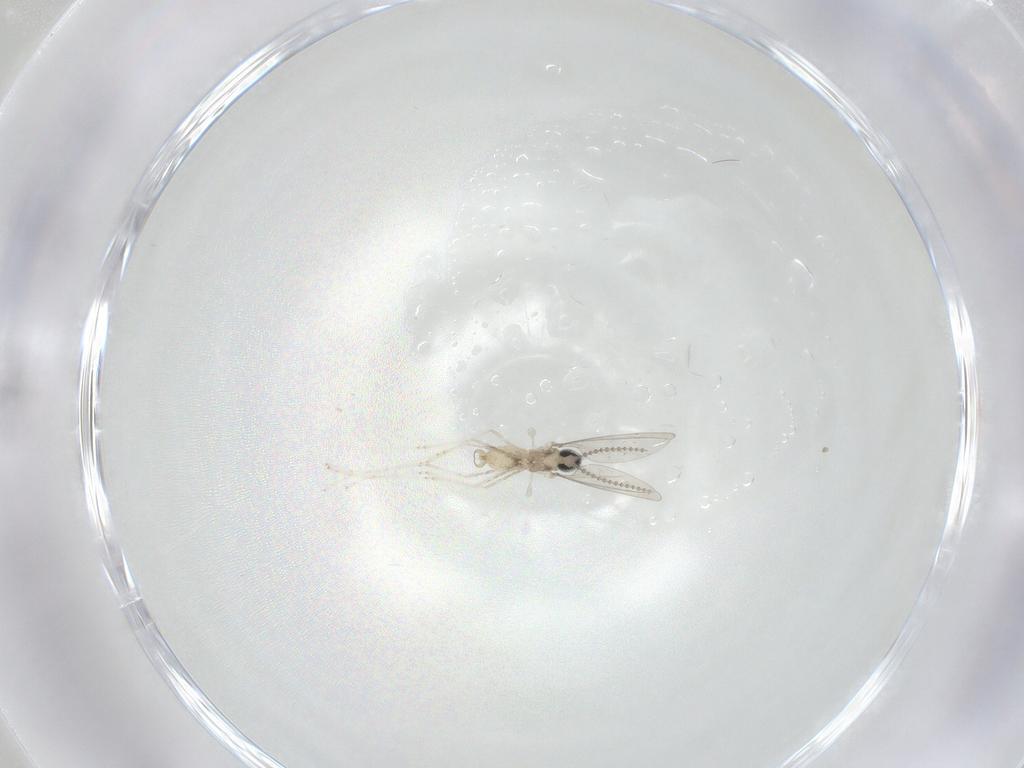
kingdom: Animalia
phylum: Arthropoda
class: Insecta
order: Diptera
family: Cecidomyiidae
